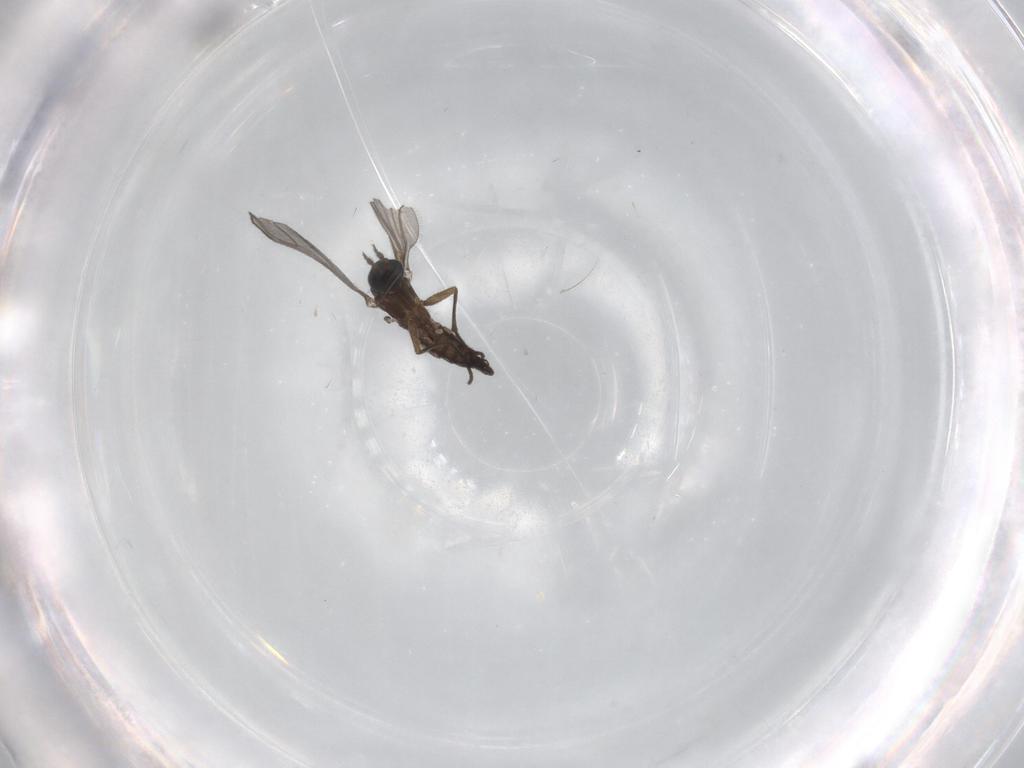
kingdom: Animalia
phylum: Arthropoda
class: Insecta
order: Diptera
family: Sciaridae
